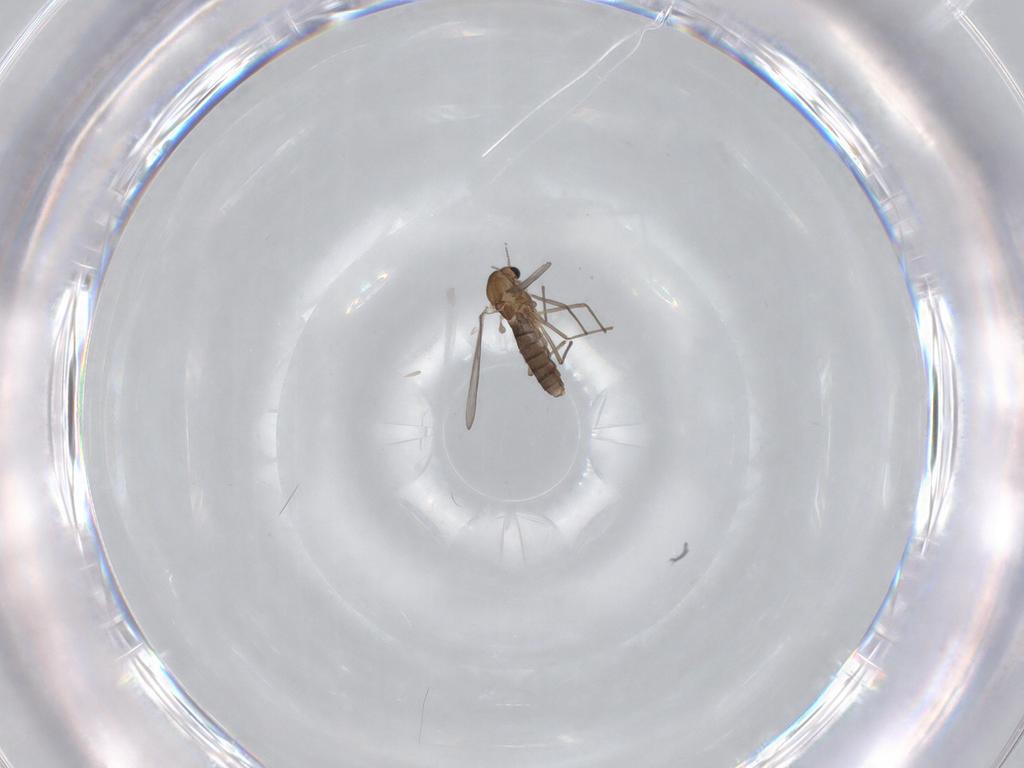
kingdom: Animalia
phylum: Arthropoda
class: Insecta
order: Diptera
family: Chironomidae
